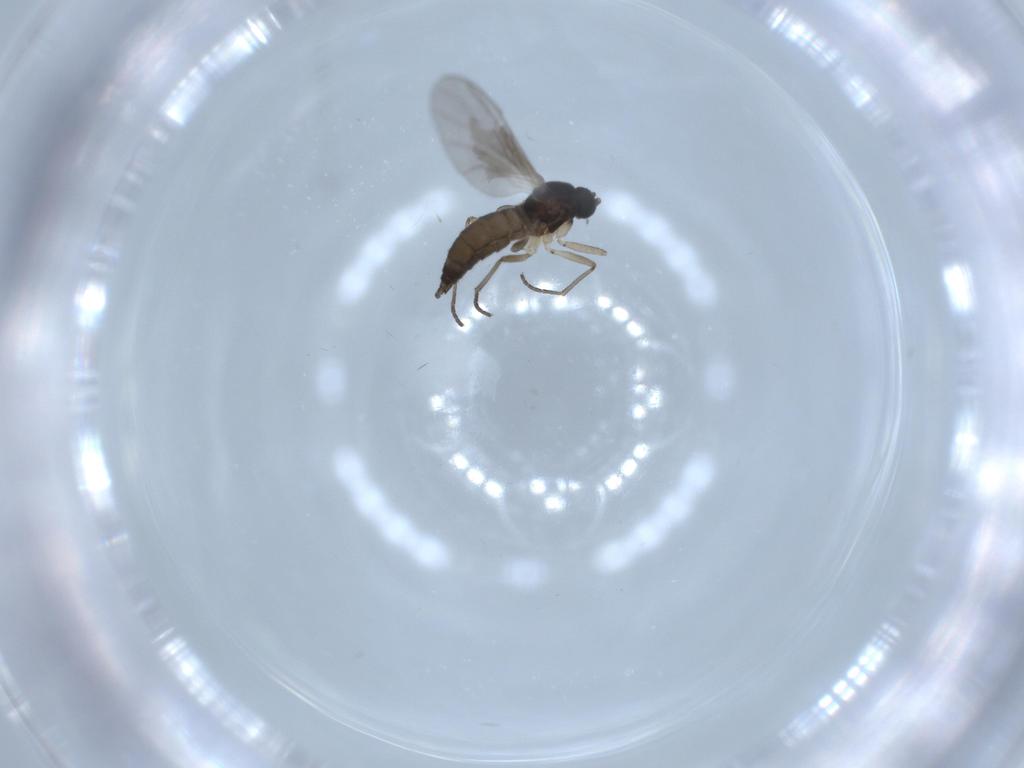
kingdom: Animalia
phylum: Arthropoda
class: Insecta
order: Diptera
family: Sciaridae
